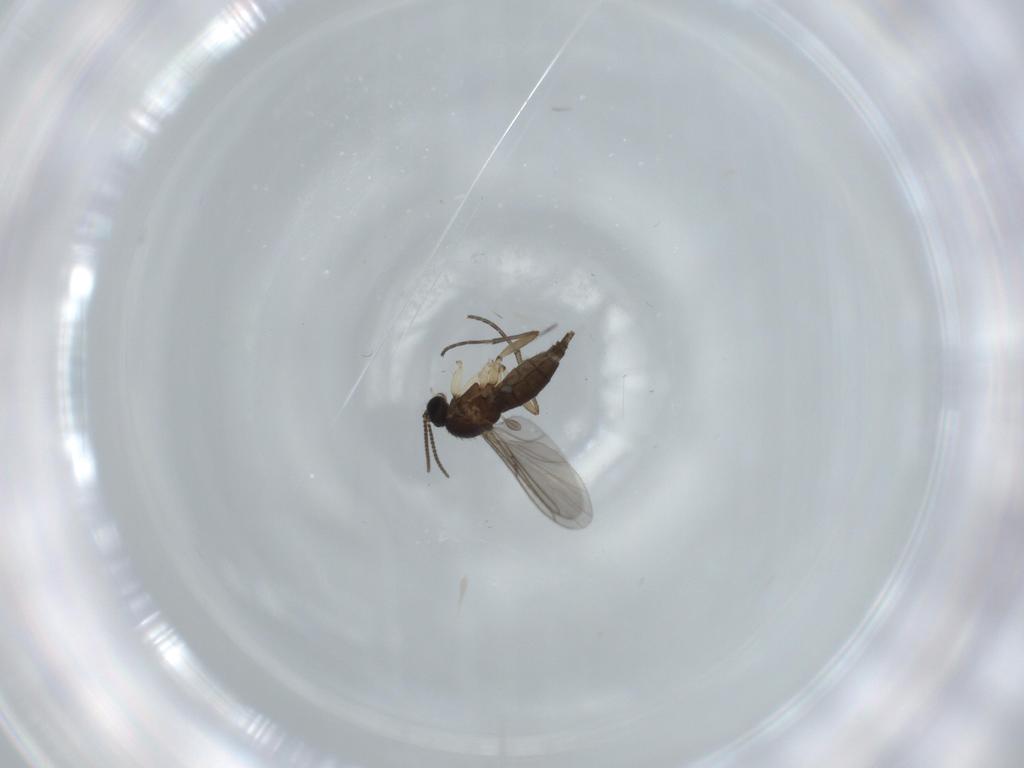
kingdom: Animalia
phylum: Arthropoda
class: Insecta
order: Diptera
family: Sciaridae
